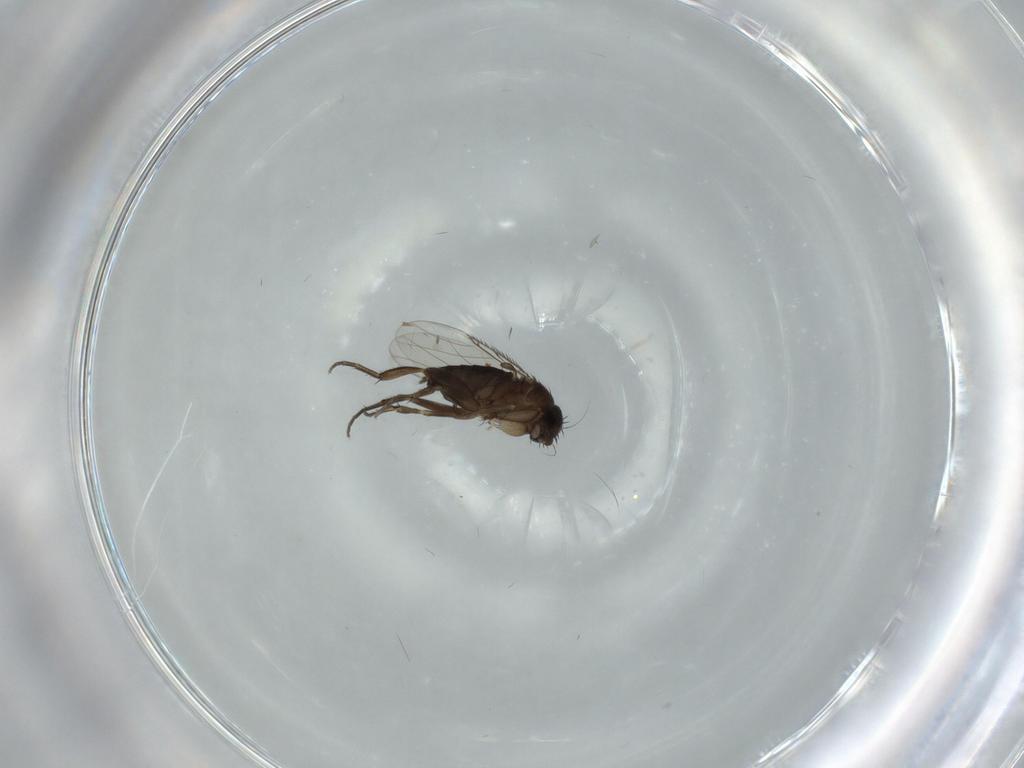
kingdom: Animalia
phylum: Arthropoda
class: Insecta
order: Diptera
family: Phoridae
